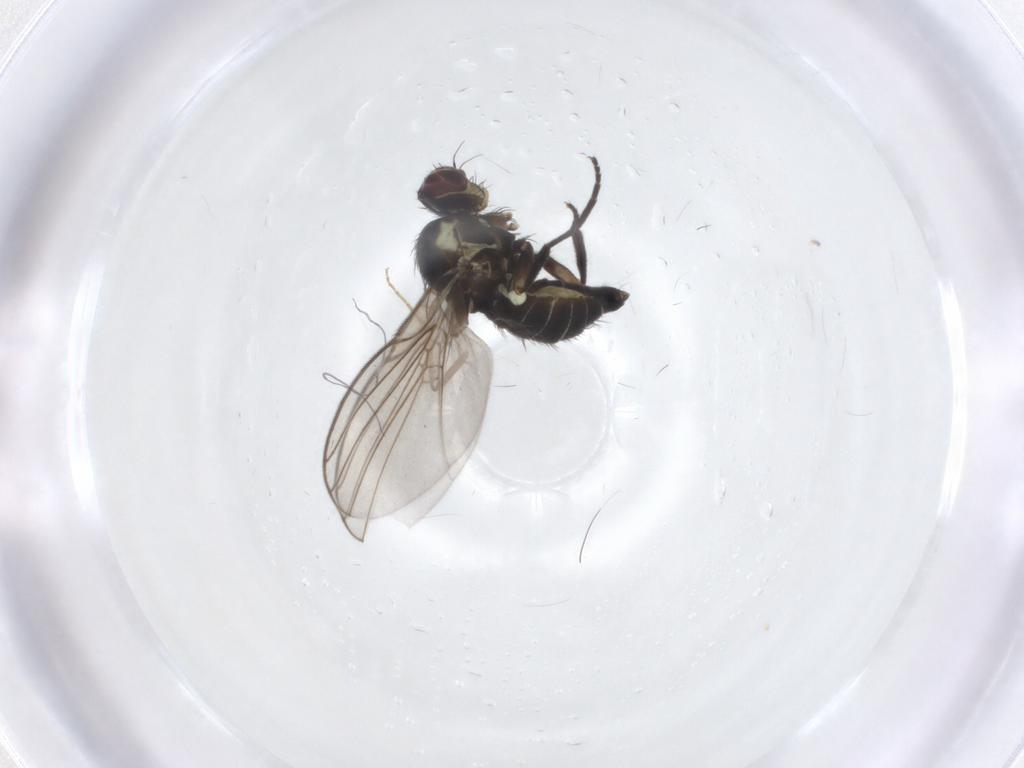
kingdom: Animalia
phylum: Arthropoda
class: Insecta
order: Diptera
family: Agromyzidae
